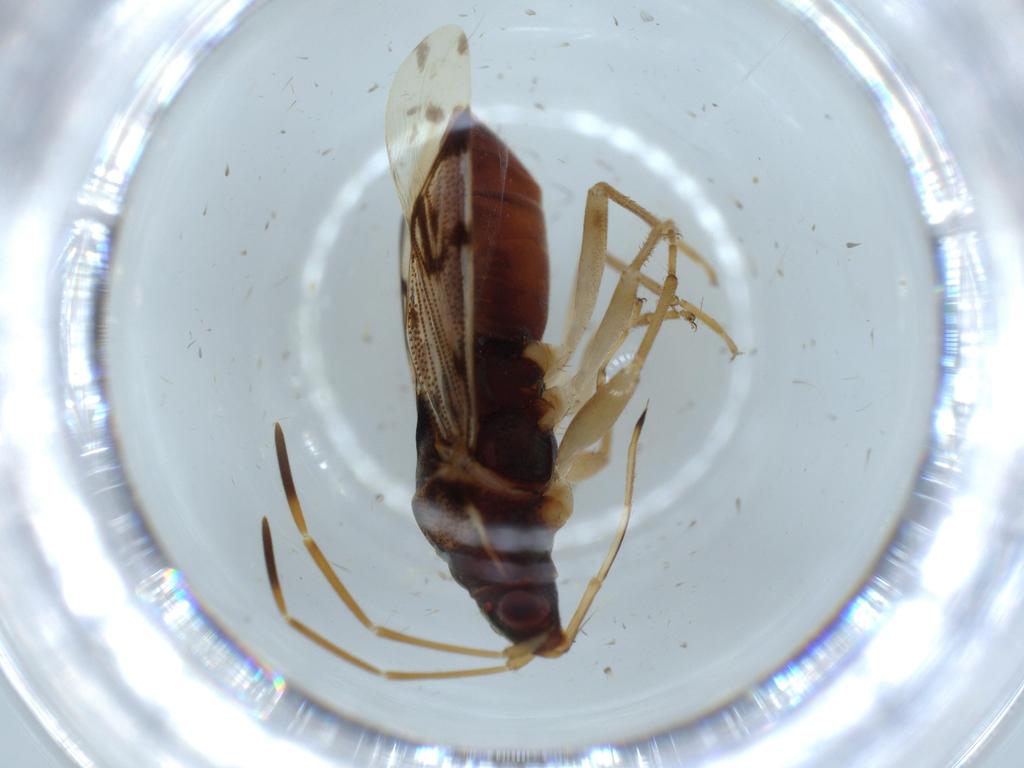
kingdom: Animalia
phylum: Arthropoda
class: Insecta
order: Hemiptera
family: Rhyparochromidae
